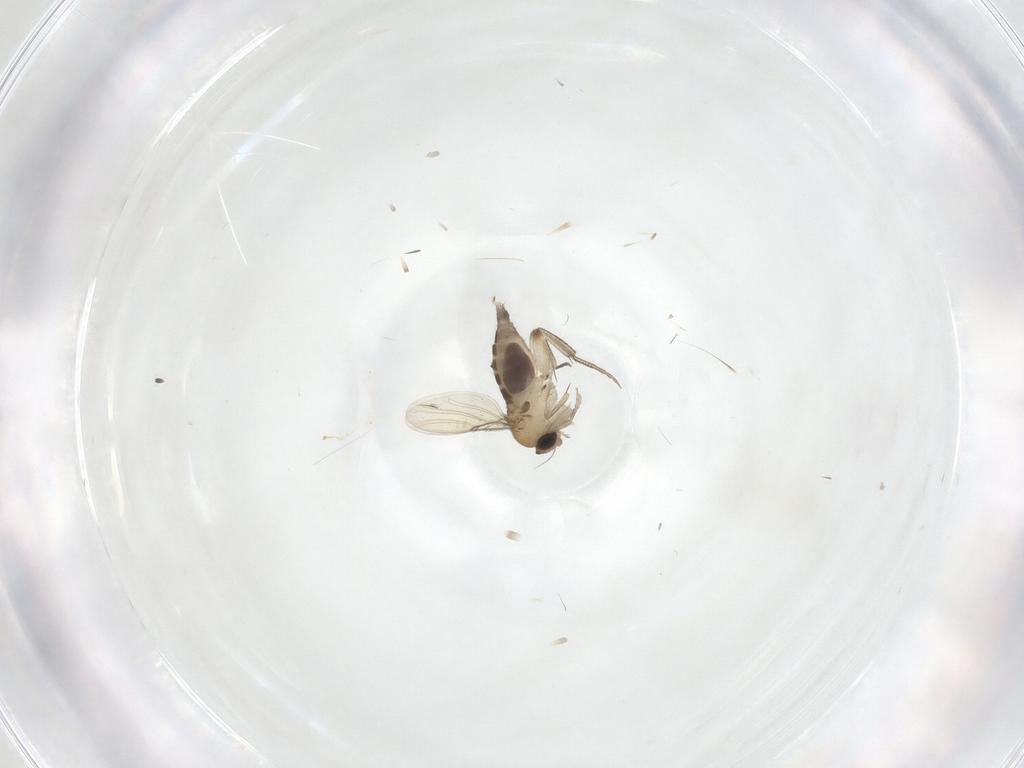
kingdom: Animalia
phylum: Arthropoda
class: Insecta
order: Diptera
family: Phoridae
